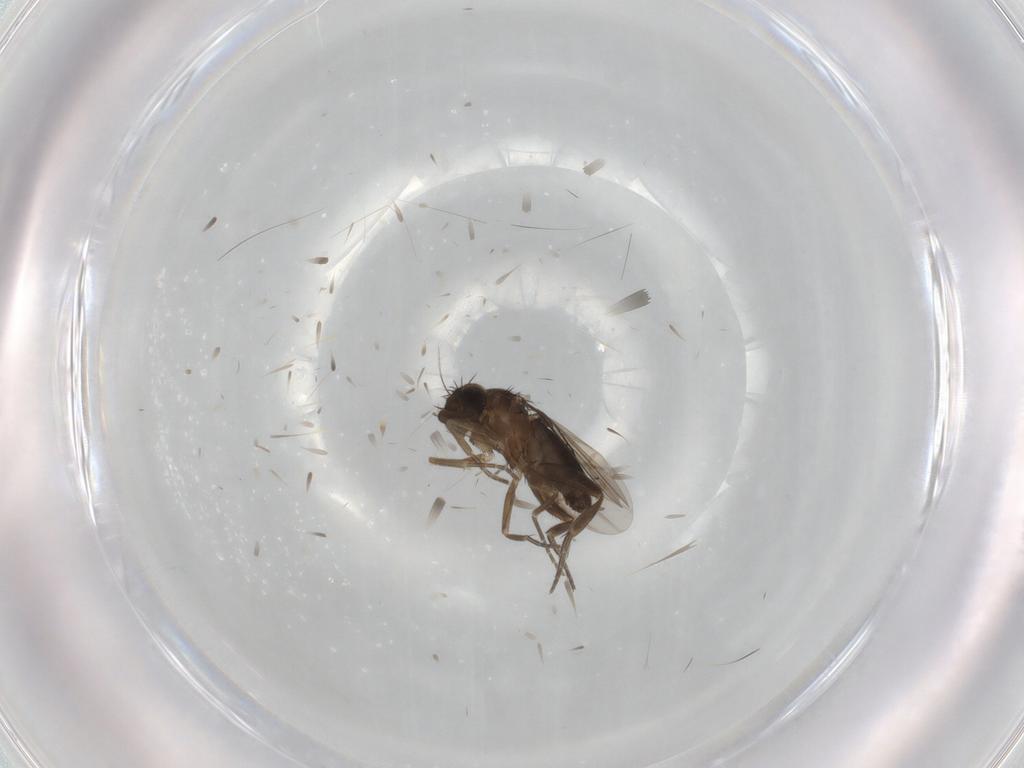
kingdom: Animalia
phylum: Arthropoda
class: Insecta
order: Diptera
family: Phoridae
